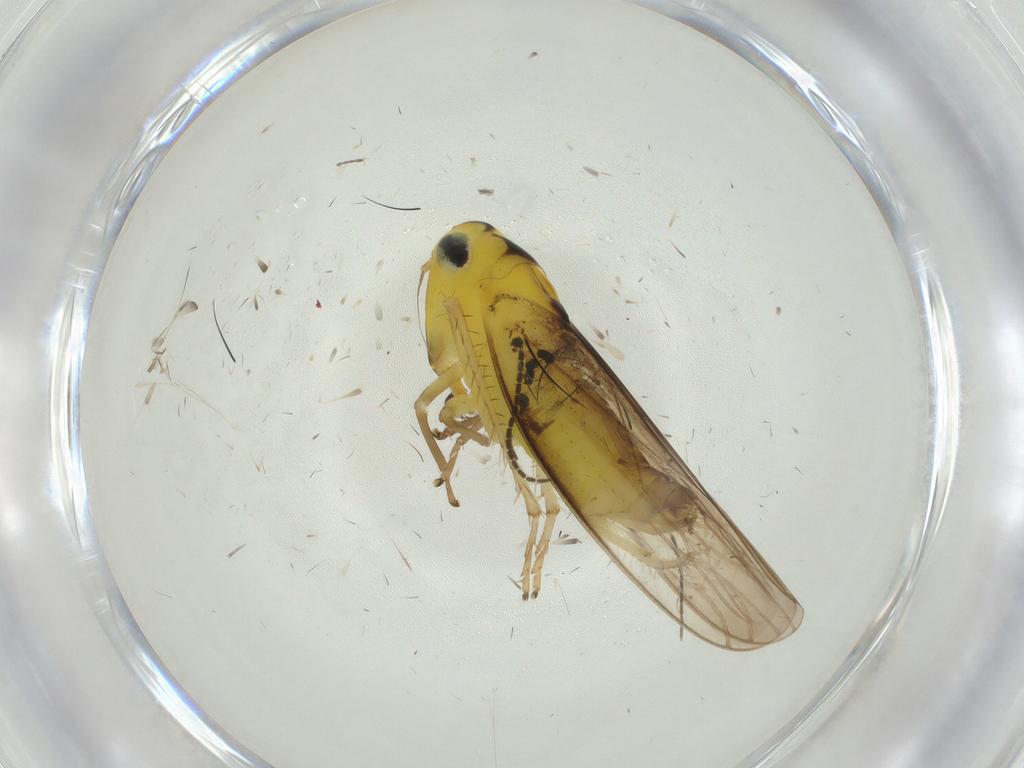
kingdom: Animalia
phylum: Arthropoda
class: Insecta
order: Hemiptera
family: Cicadellidae
